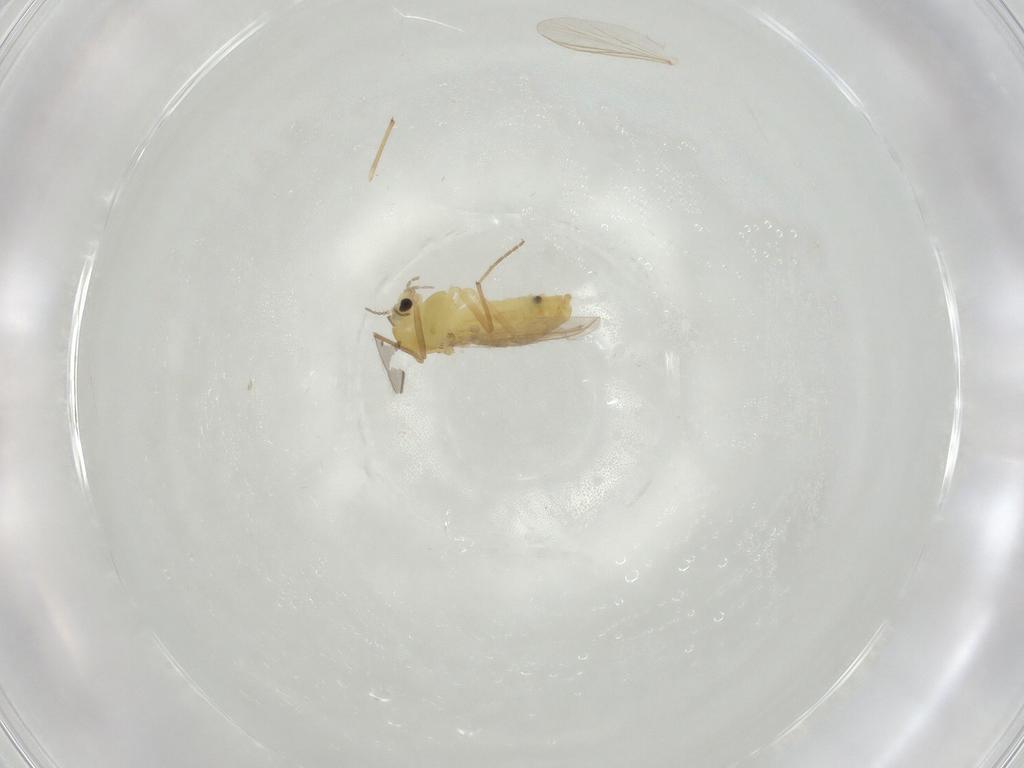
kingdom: Animalia
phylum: Arthropoda
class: Insecta
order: Diptera
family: Chironomidae
